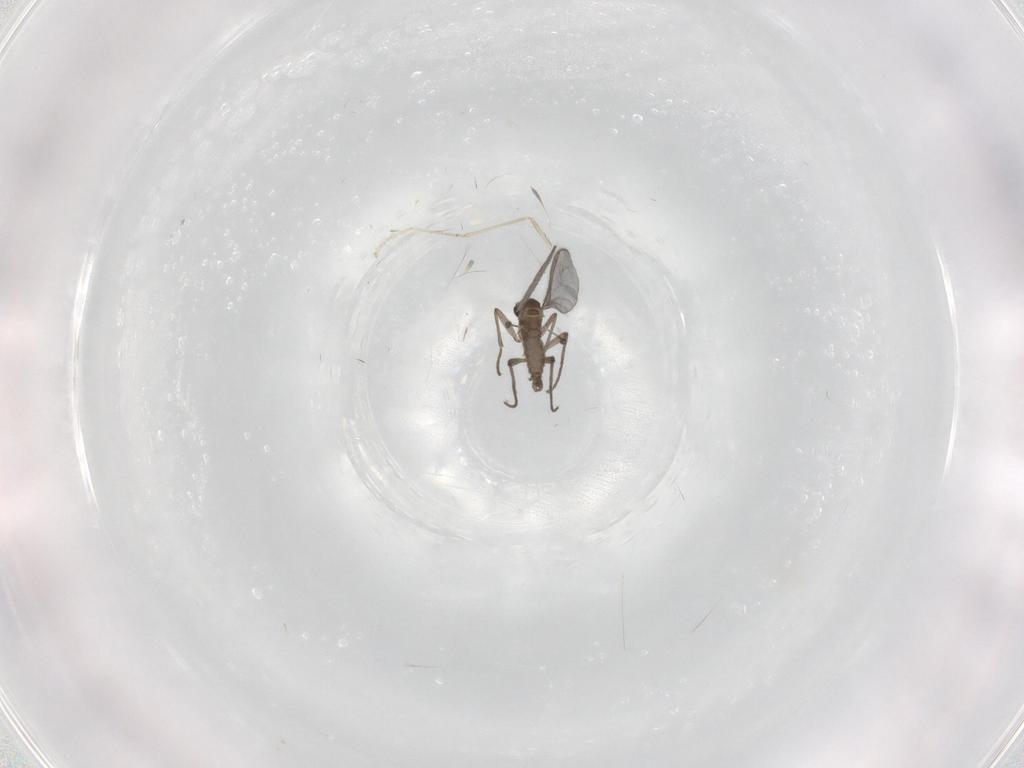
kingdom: Animalia
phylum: Arthropoda
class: Insecta
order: Diptera
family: Sciaridae
